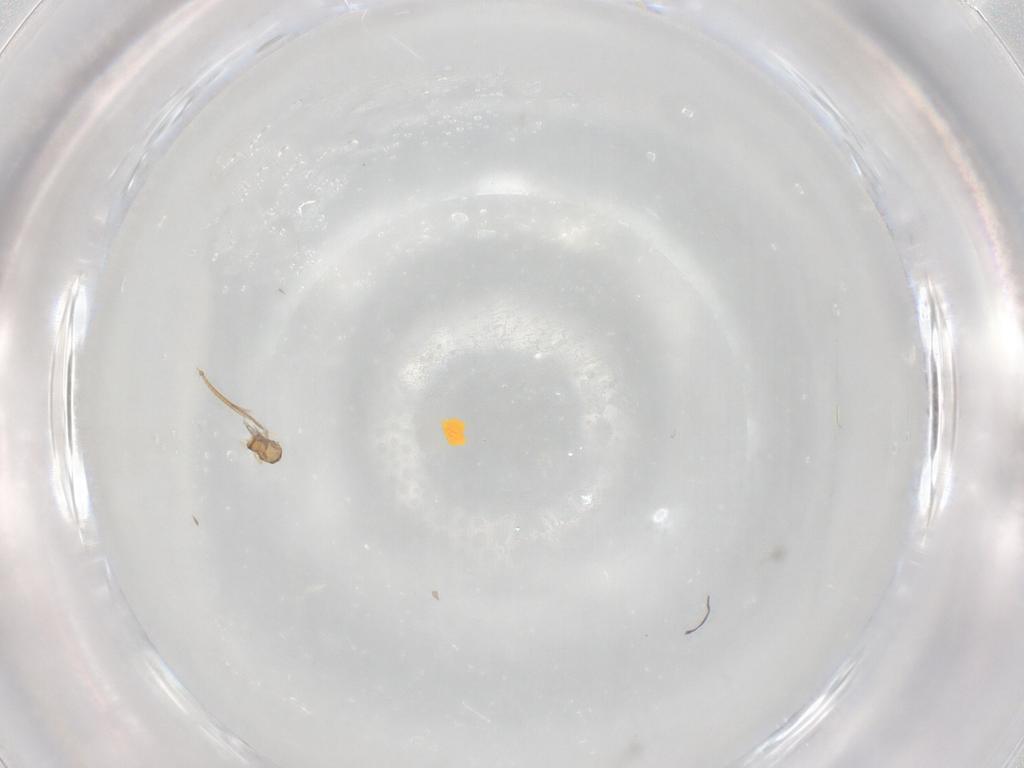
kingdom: Animalia
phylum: Arthropoda
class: Insecta
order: Hymenoptera
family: Aphelinidae
